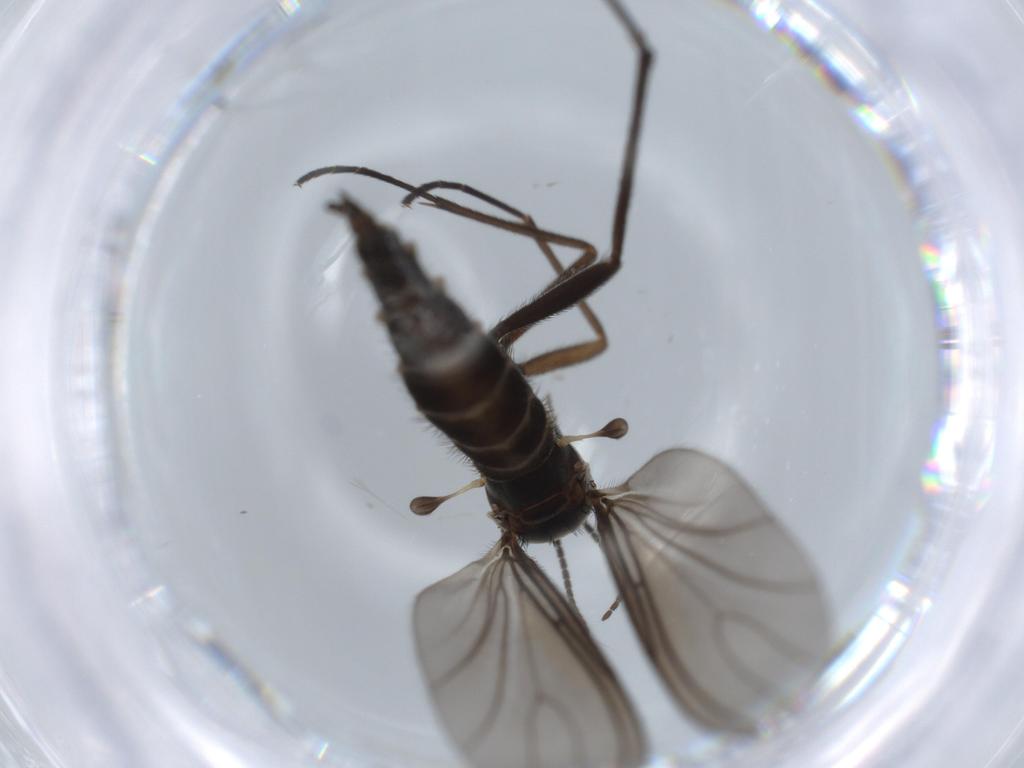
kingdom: Animalia
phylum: Arthropoda
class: Insecta
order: Diptera
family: Sciaridae
